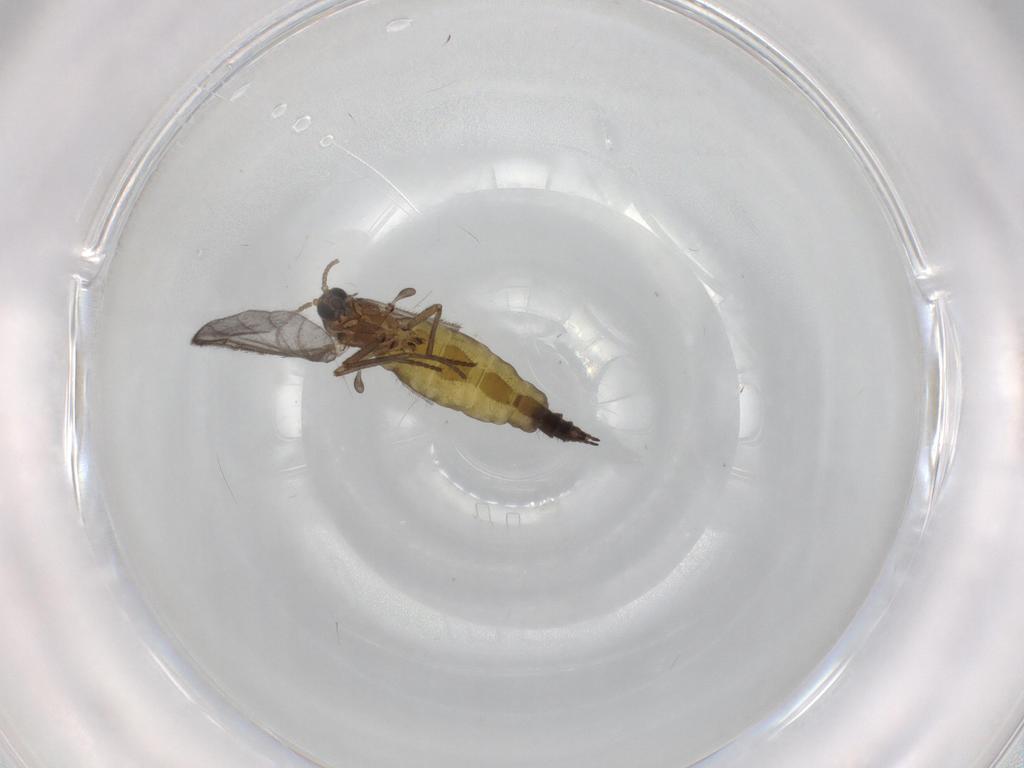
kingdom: Animalia
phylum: Arthropoda
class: Insecta
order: Diptera
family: Sciaridae
